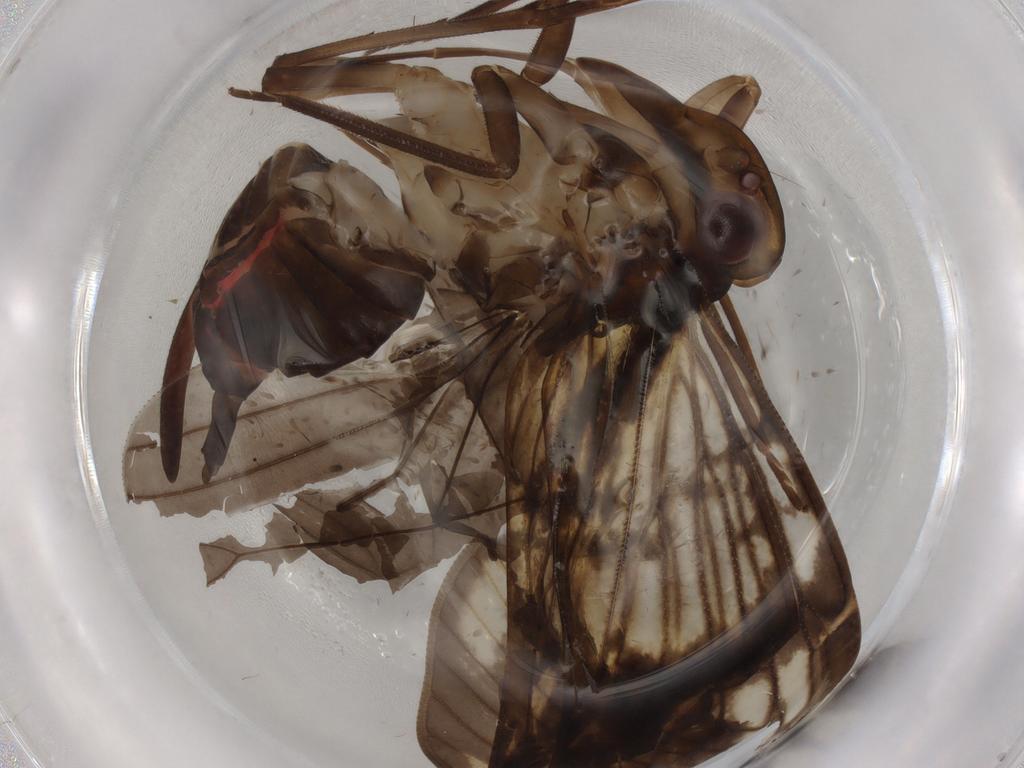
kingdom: Animalia
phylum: Arthropoda
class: Insecta
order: Hemiptera
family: Cixiidae
